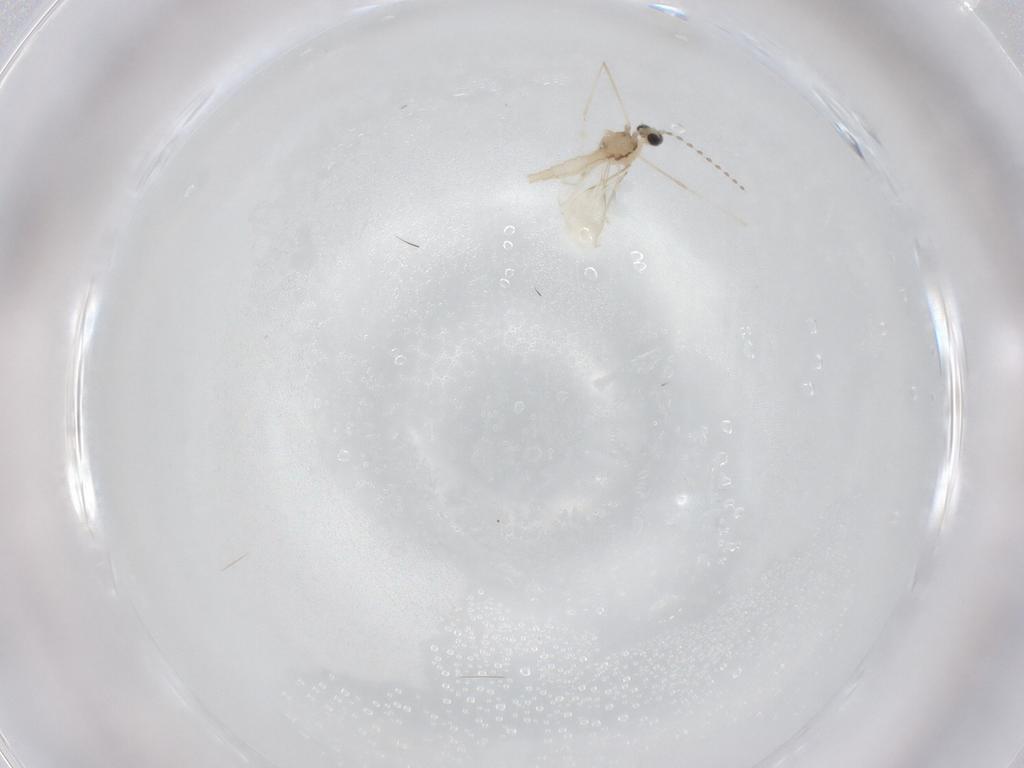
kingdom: Animalia
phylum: Arthropoda
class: Insecta
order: Diptera
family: Cecidomyiidae
